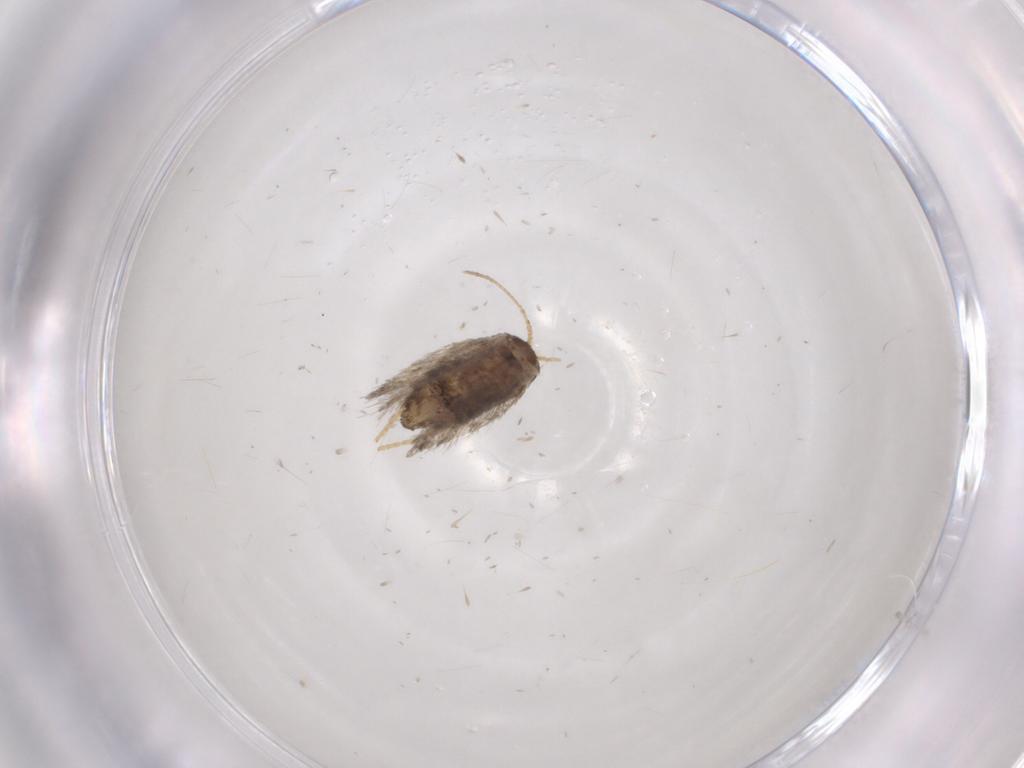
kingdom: Animalia
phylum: Arthropoda
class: Insecta
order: Lepidoptera
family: Nepticulidae
